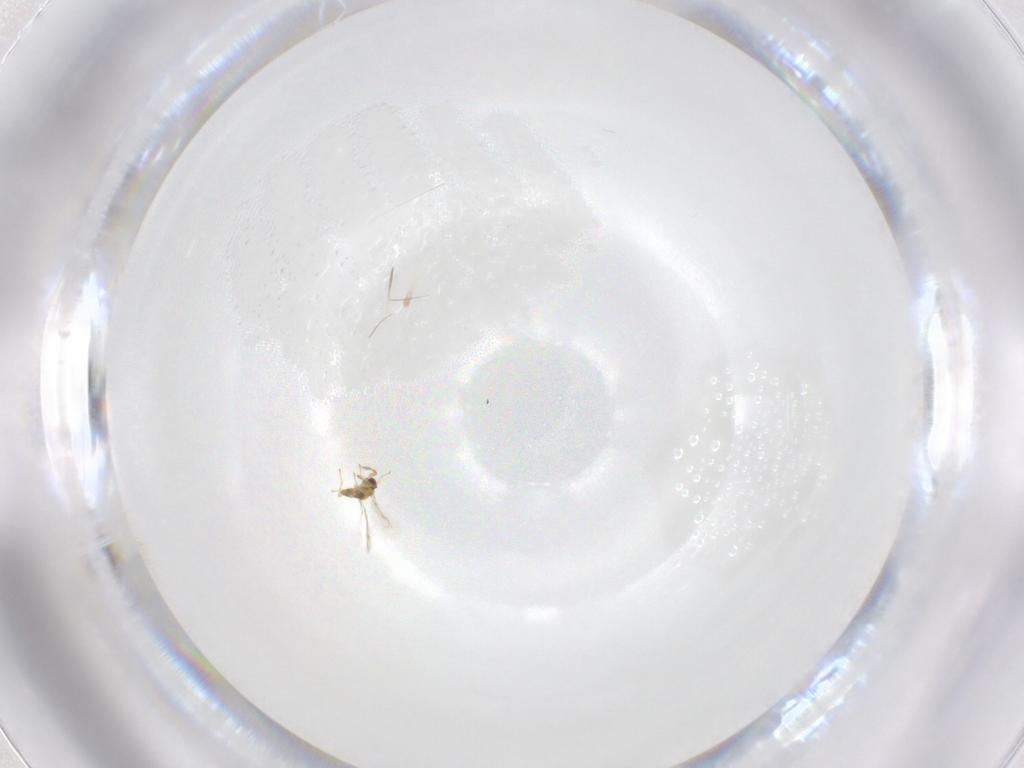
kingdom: Animalia
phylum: Arthropoda
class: Insecta
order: Hymenoptera
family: Eulophidae
